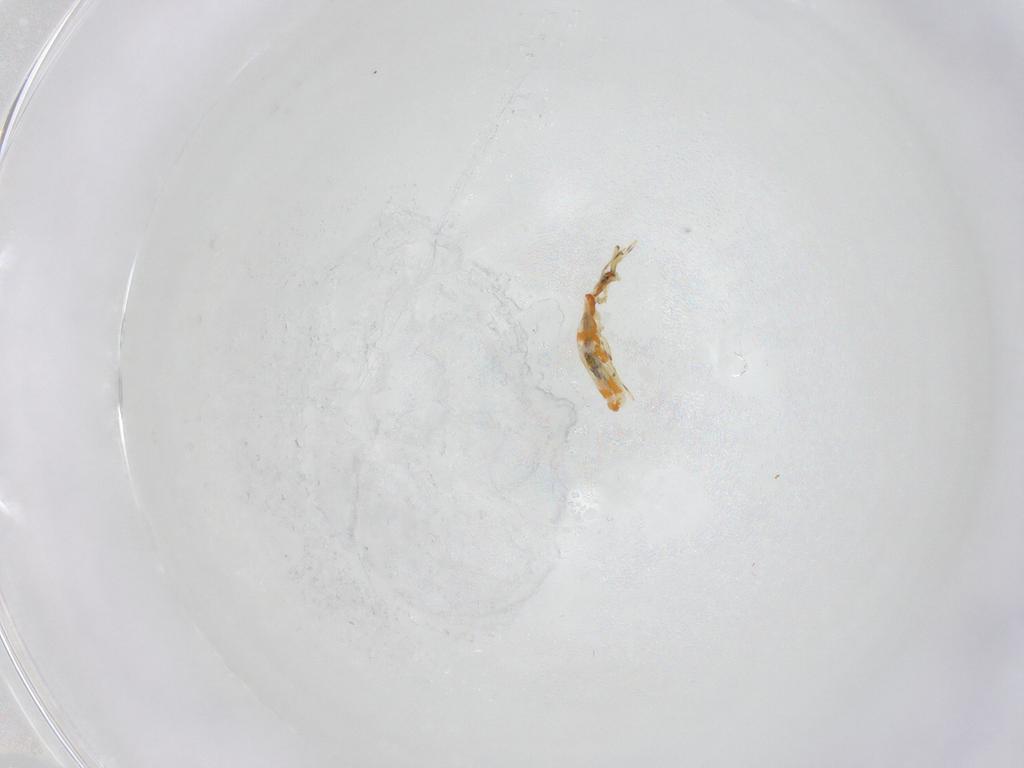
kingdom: Animalia
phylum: Arthropoda
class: Collembola
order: Entomobryomorpha
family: Paronellidae
